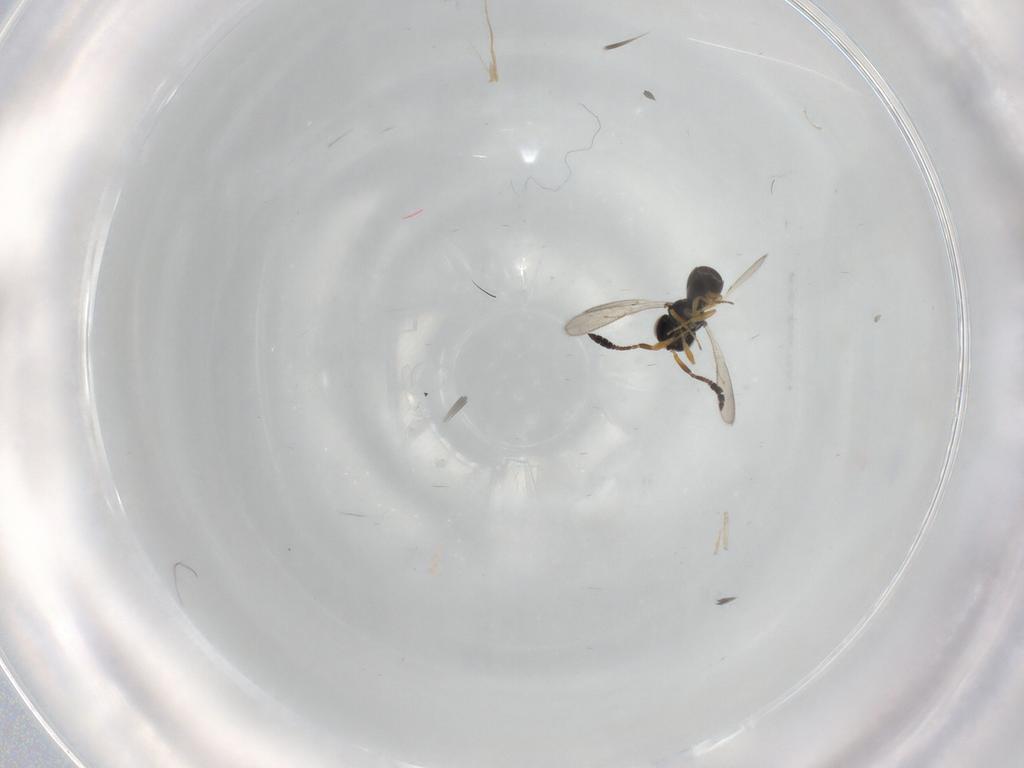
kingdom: Animalia
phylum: Arthropoda
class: Insecta
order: Hymenoptera
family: Scelionidae
